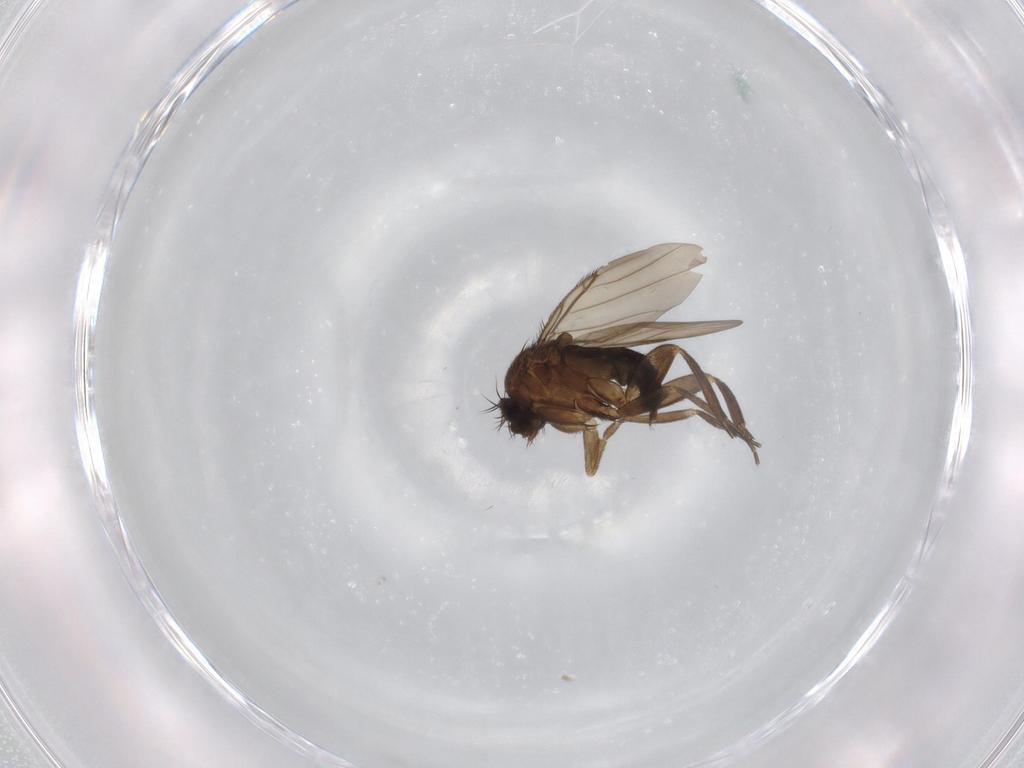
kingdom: Animalia
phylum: Arthropoda
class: Insecta
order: Diptera
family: Phoridae
